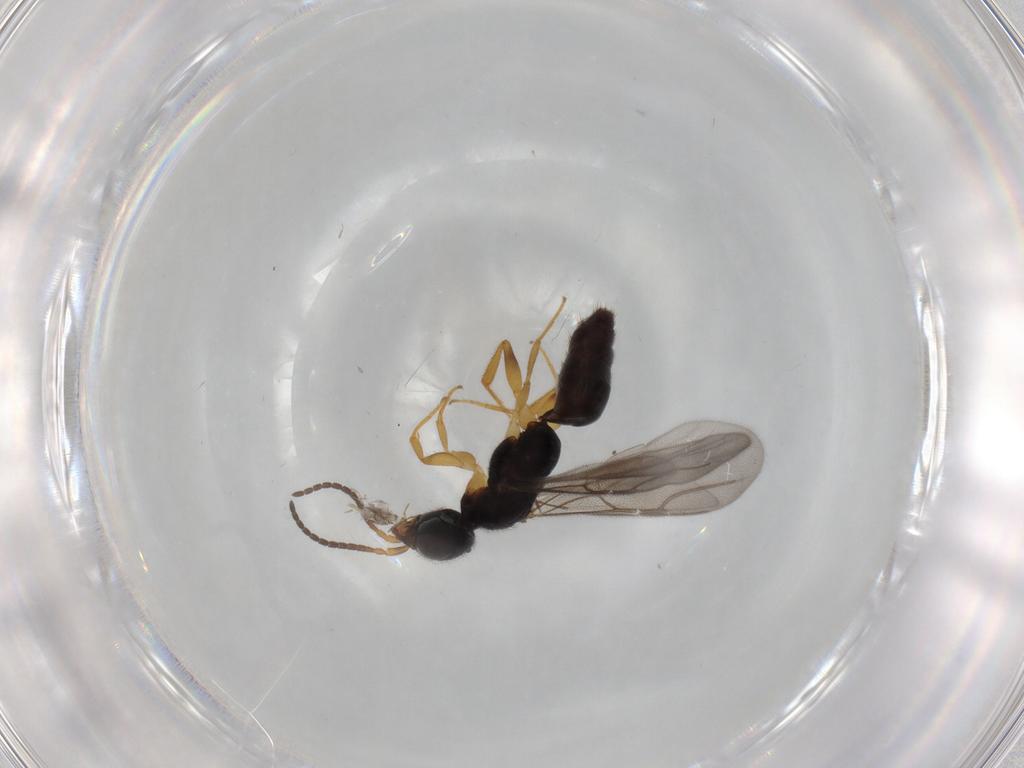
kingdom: Animalia
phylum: Arthropoda
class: Insecta
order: Hymenoptera
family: Bethylidae
